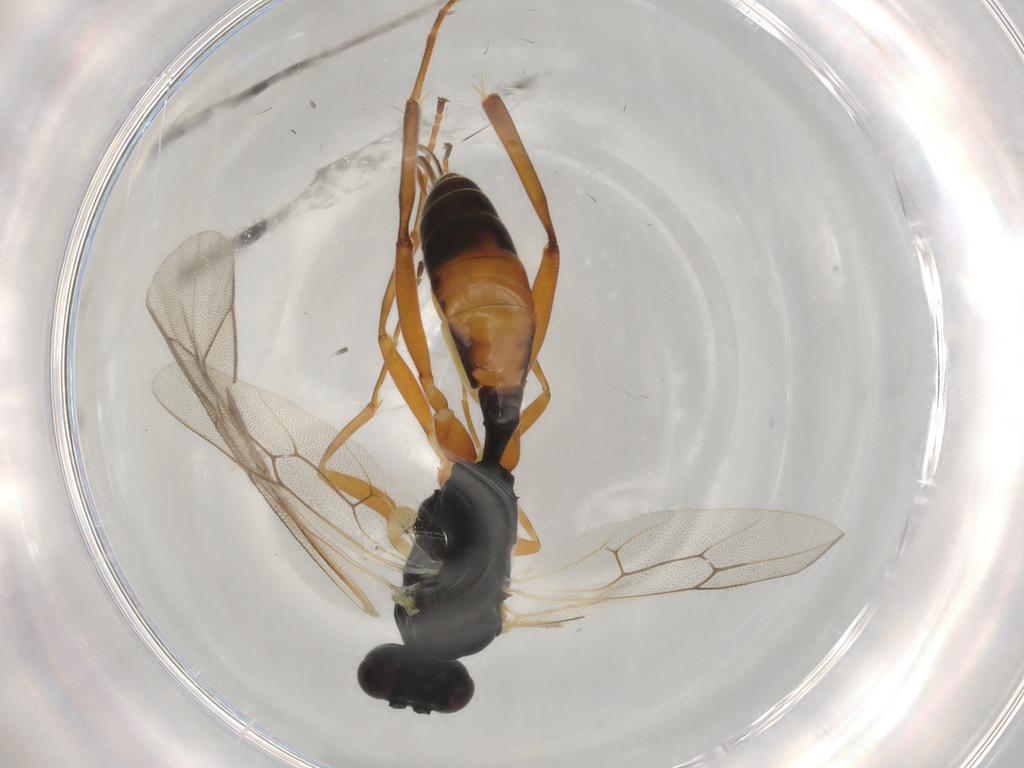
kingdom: Animalia
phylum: Arthropoda
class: Insecta
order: Hymenoptera
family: Ichneumonidae
